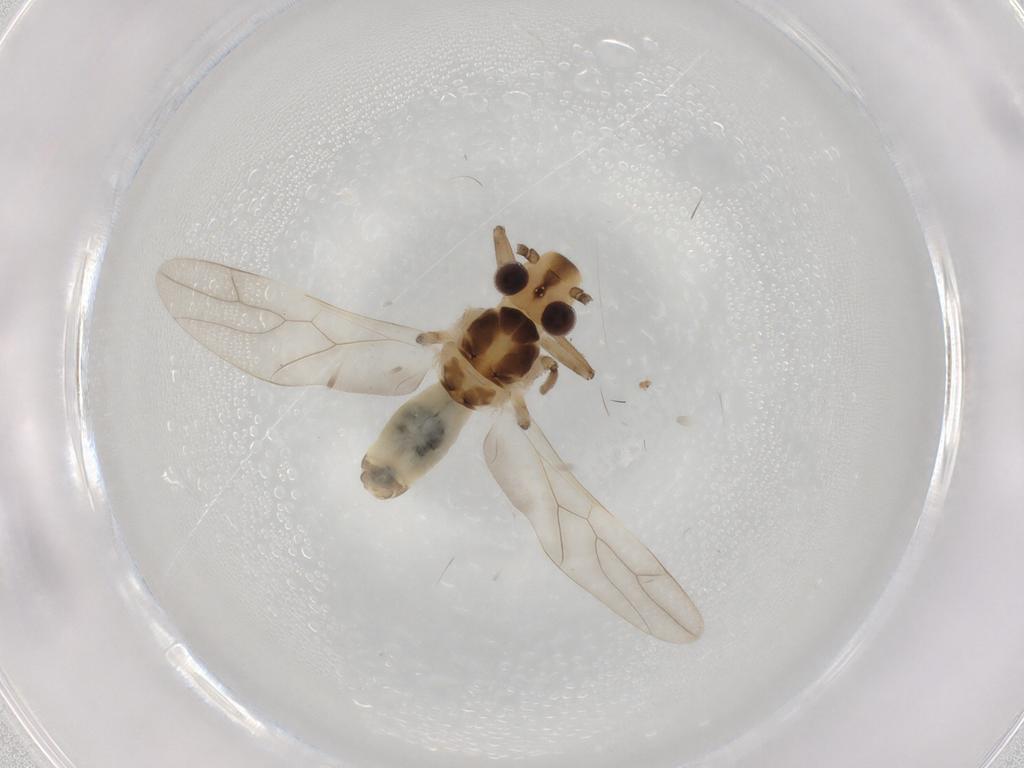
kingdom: Animalia
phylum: Arthropoda
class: Insecta
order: Psocodea
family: Caeciliusidae
